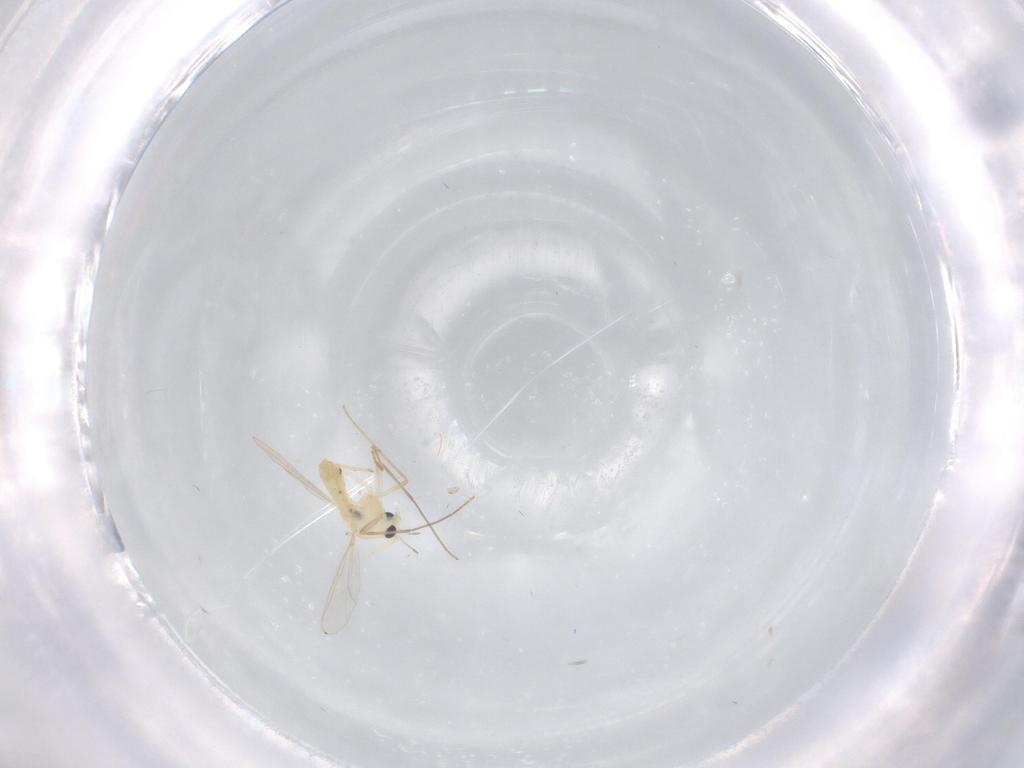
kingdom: Animalia
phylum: Arthropoda
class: Insecta
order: Diptera
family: Chironomidae
